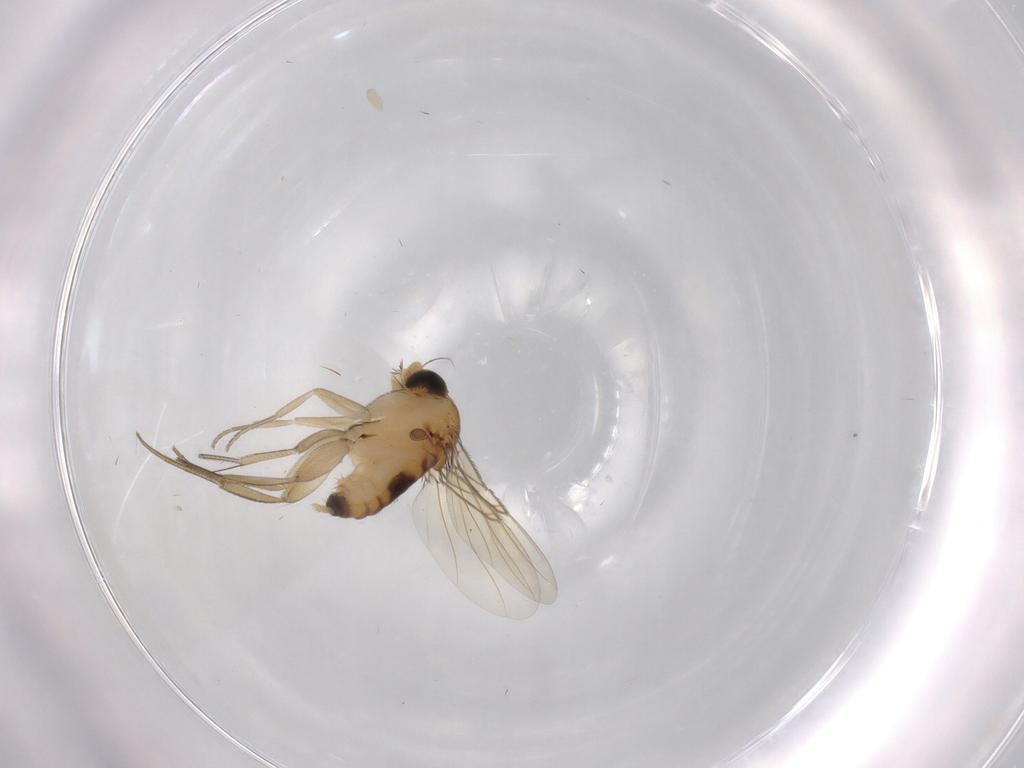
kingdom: Animalia
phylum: Arthropoda
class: Insecta
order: Diptera
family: Phoridae
